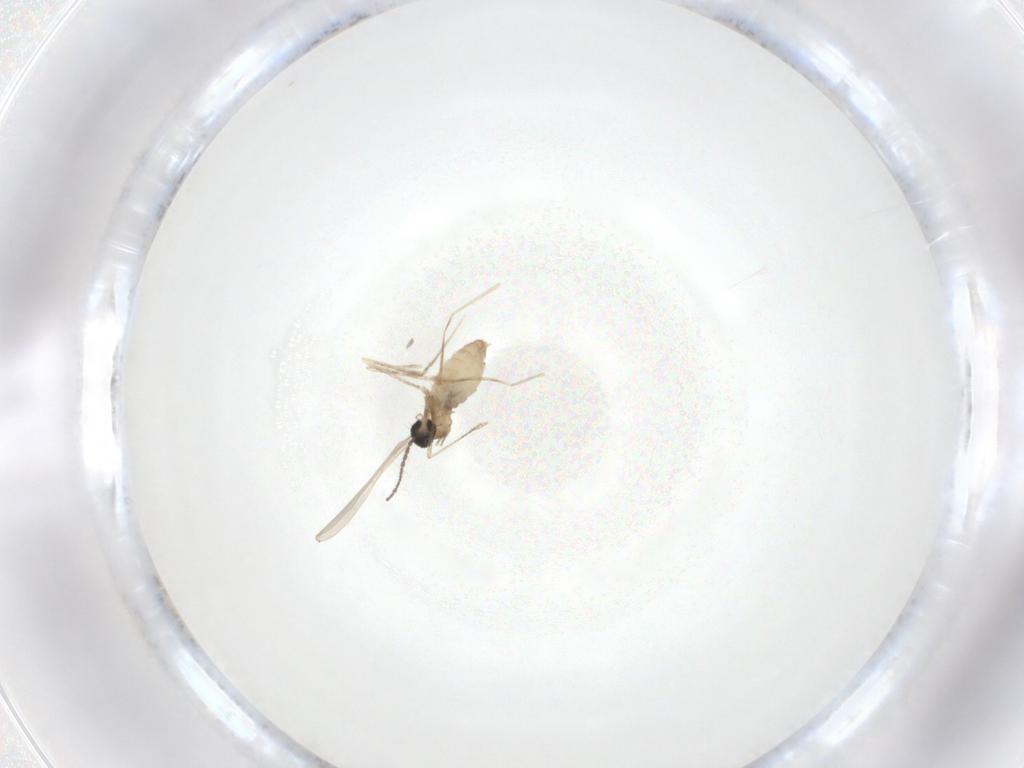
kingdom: Animalia
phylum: Arthropoda
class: Insecta
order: Diptera
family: Cecidomyiidae
